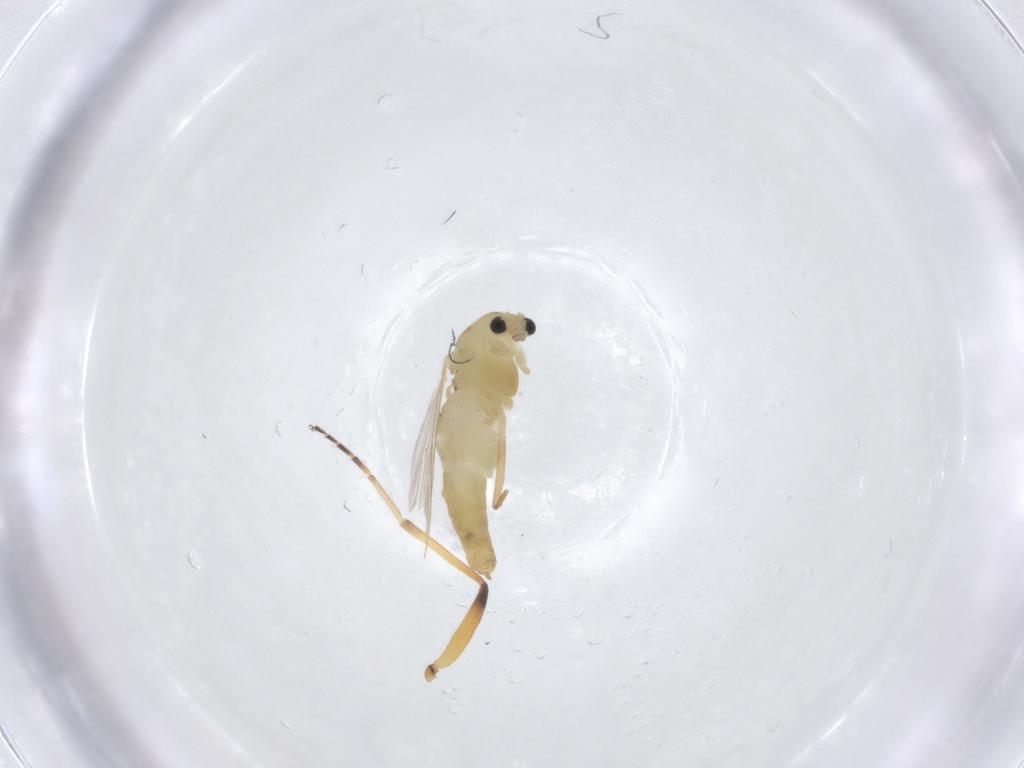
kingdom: Animalia
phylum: Arthropoda
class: Insecta
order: Diptera
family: Chironomidae
